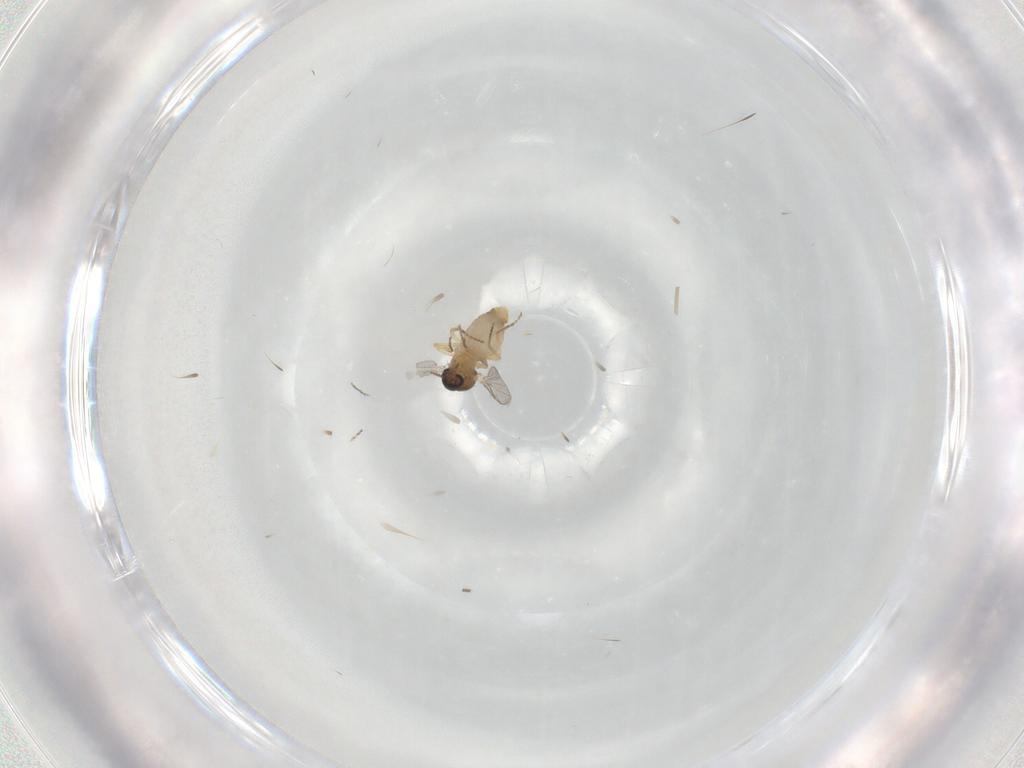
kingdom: Animalia
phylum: Arthropoda
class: Insecta
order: Diptera
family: Ceratopogonidae
